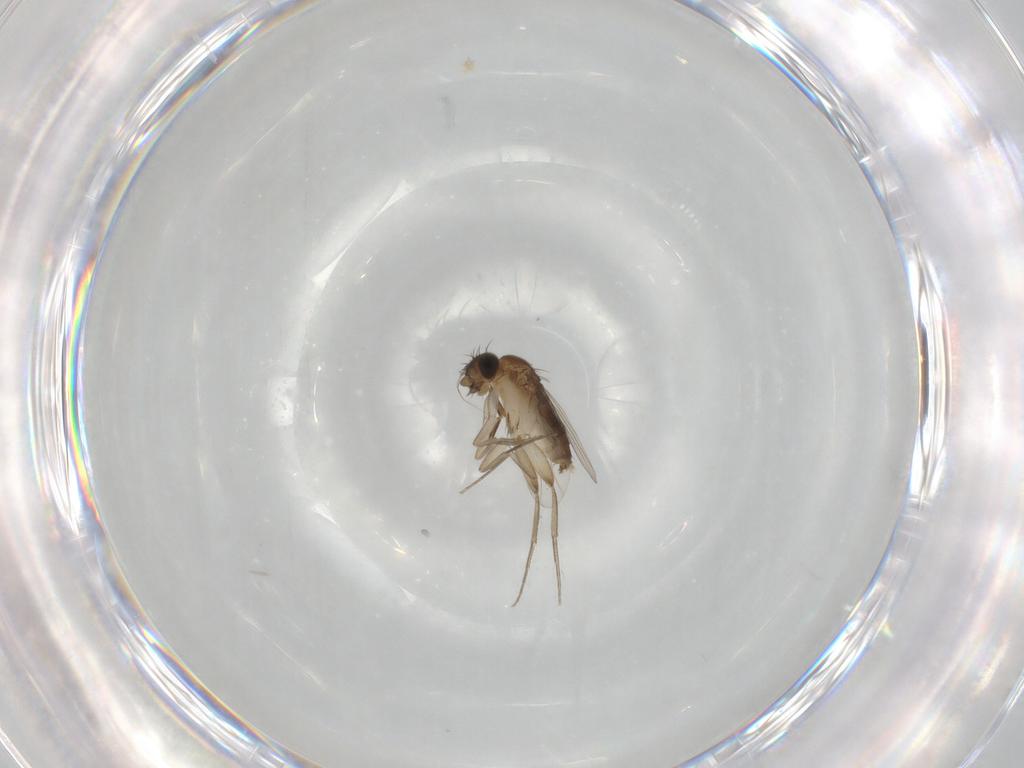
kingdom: Animalia
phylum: Arthropoda
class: Insecta
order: Diptera
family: Phoridae
